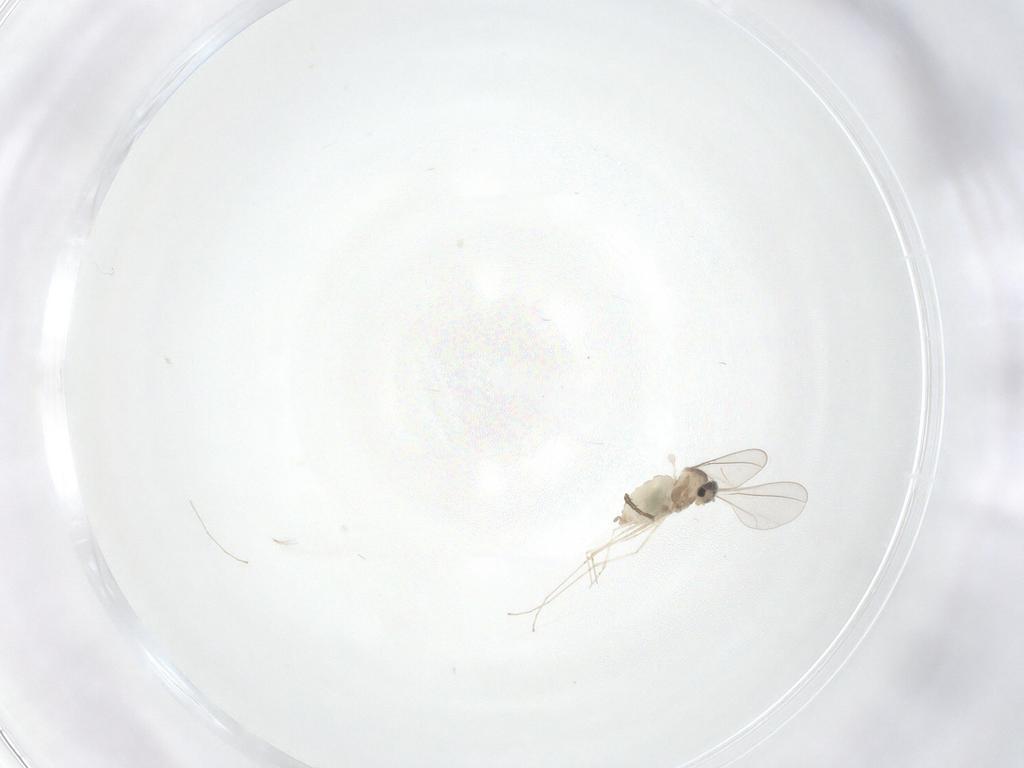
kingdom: Animalia
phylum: Arthropoda
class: Insecta
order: Diptera
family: Cecidomyiidae
